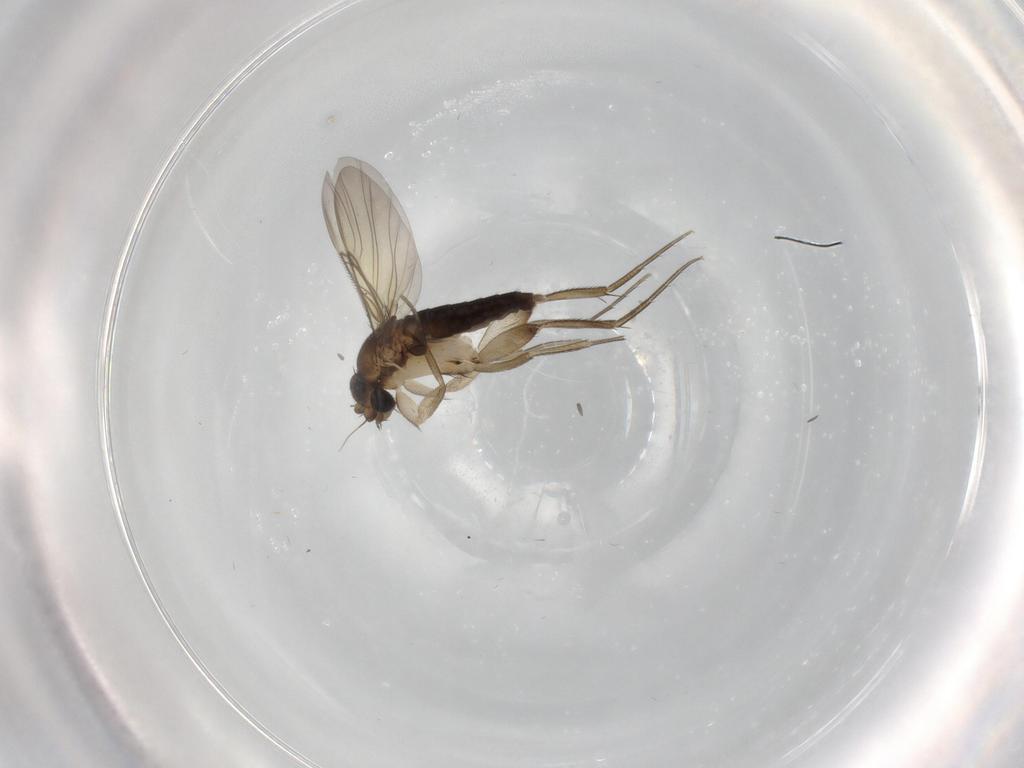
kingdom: Animalia
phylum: Arthropoda
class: Insecta
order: Diptera
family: Phoridae
